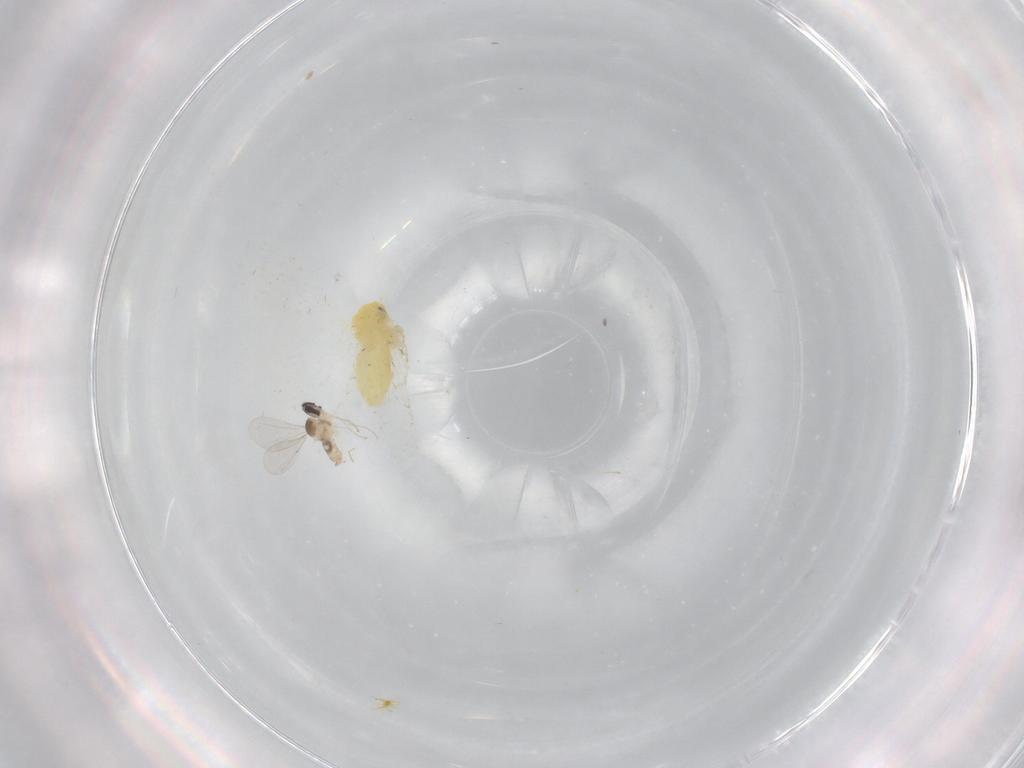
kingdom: Animalia
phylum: Arthropoda
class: Insecta
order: Hemiptera
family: Aleyrodidae
